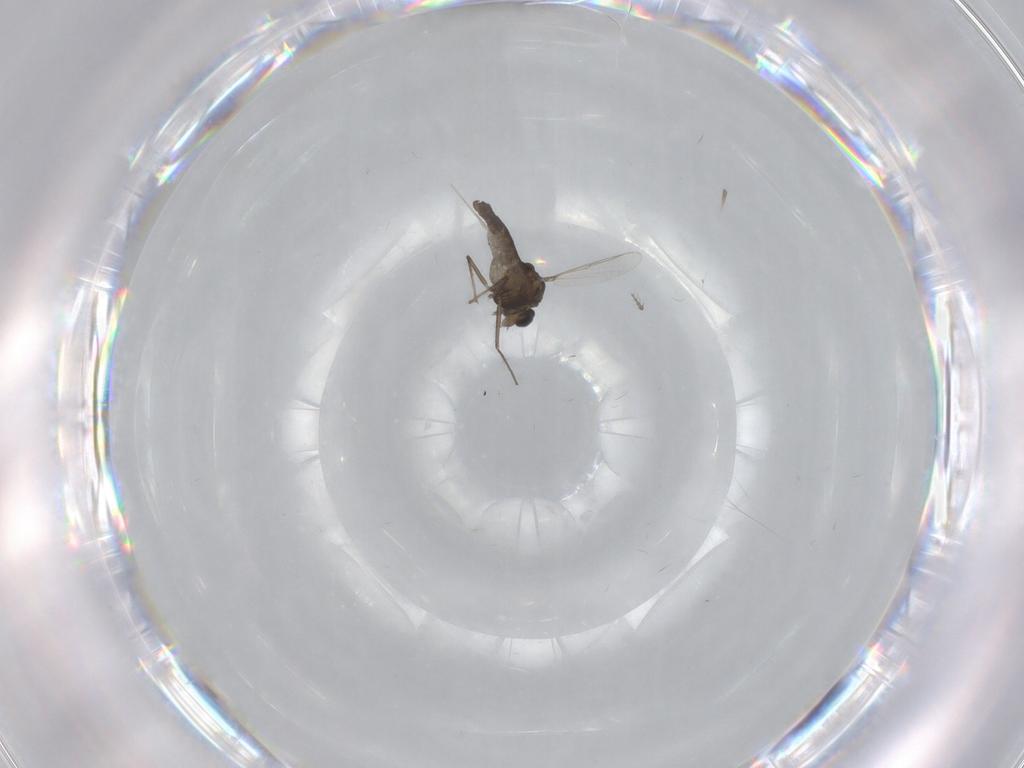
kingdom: Animalia
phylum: Arthropoda
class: Insecta
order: Diptera
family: Chironomidae
